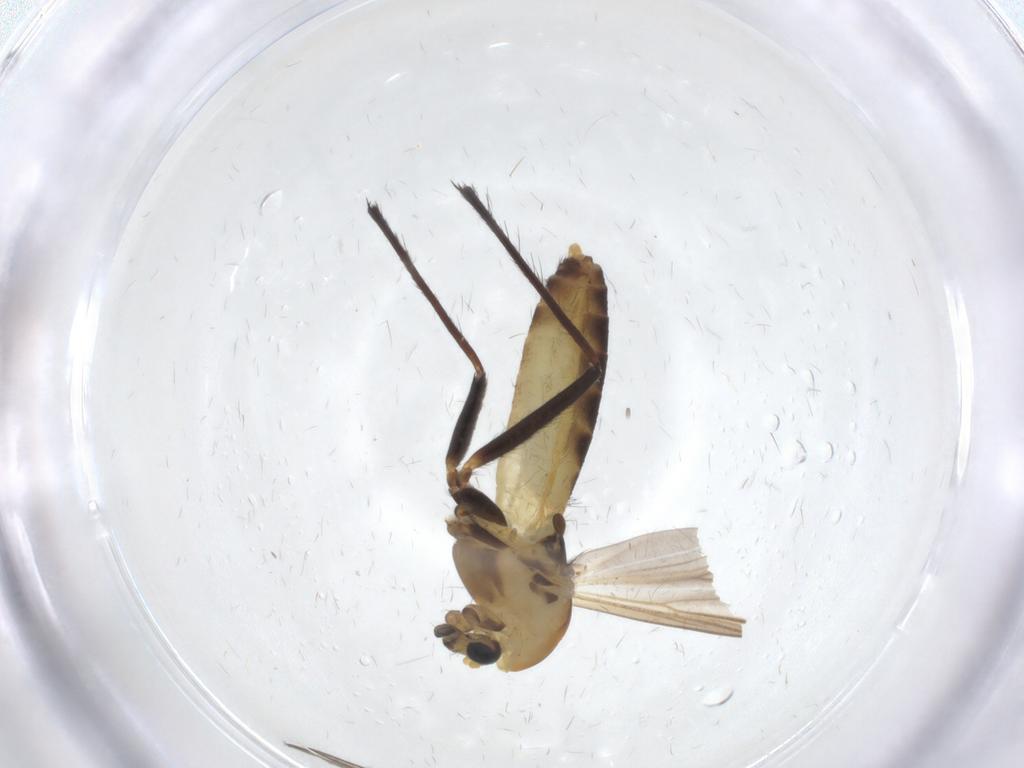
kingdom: Animalia
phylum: Arthropoda
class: Insecta
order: Diptera
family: Chironomidae
